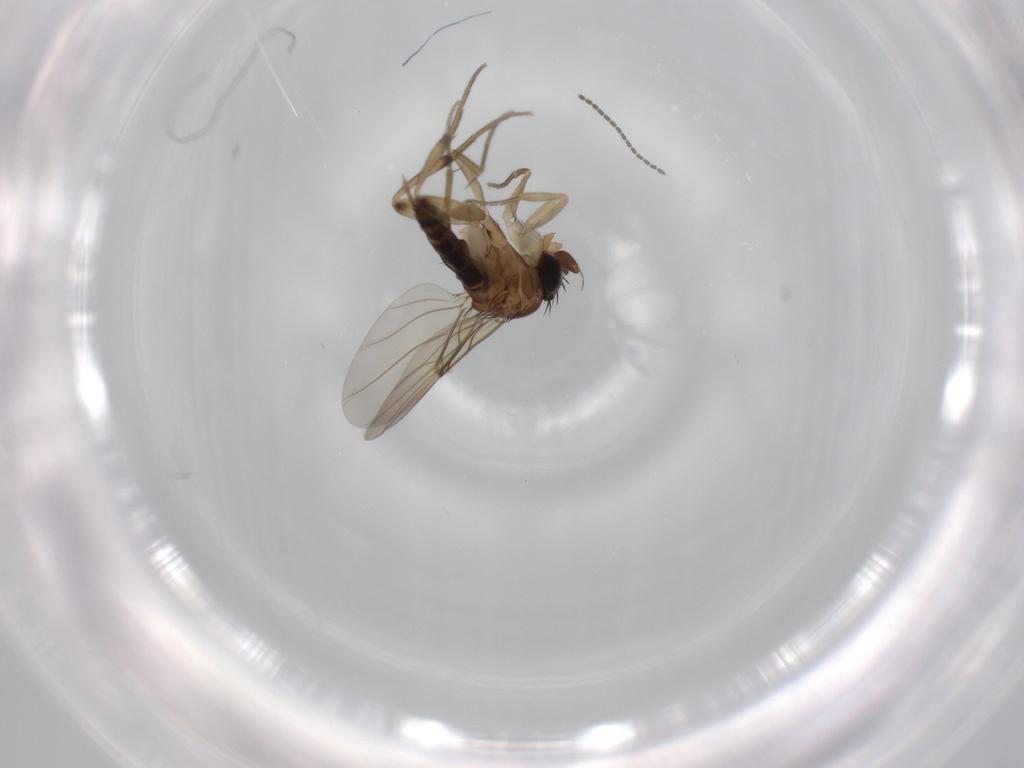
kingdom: Animalia
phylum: Arthropoda
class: Insecta
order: Diptera
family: Phoridae
